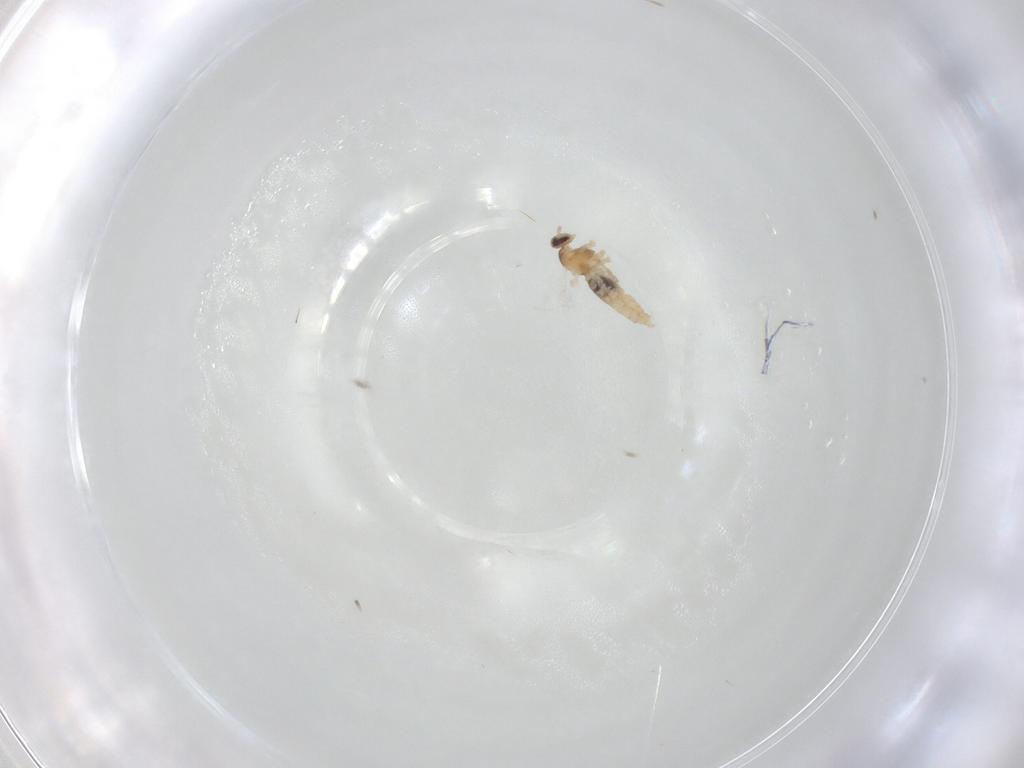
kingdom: Animalia
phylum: Arthropoda
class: Insecta
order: Diptera
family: Cecidomyiidae
